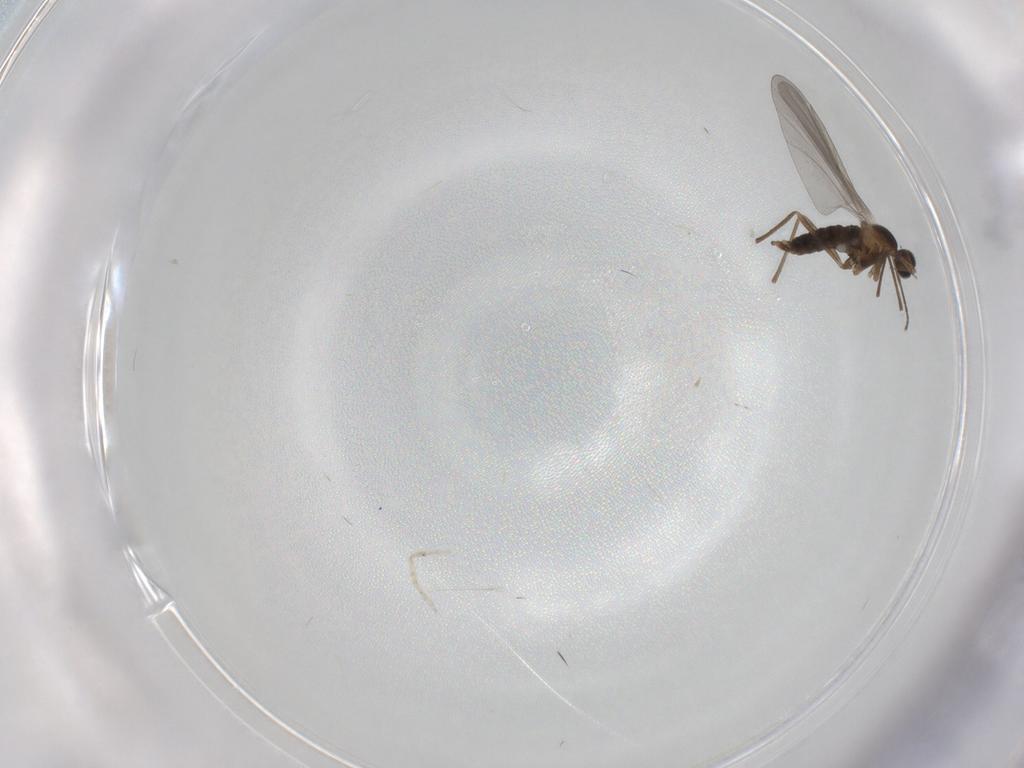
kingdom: Animalia
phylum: Arthropoda
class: Insecta
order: Diptera
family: Cecidomyiidae
